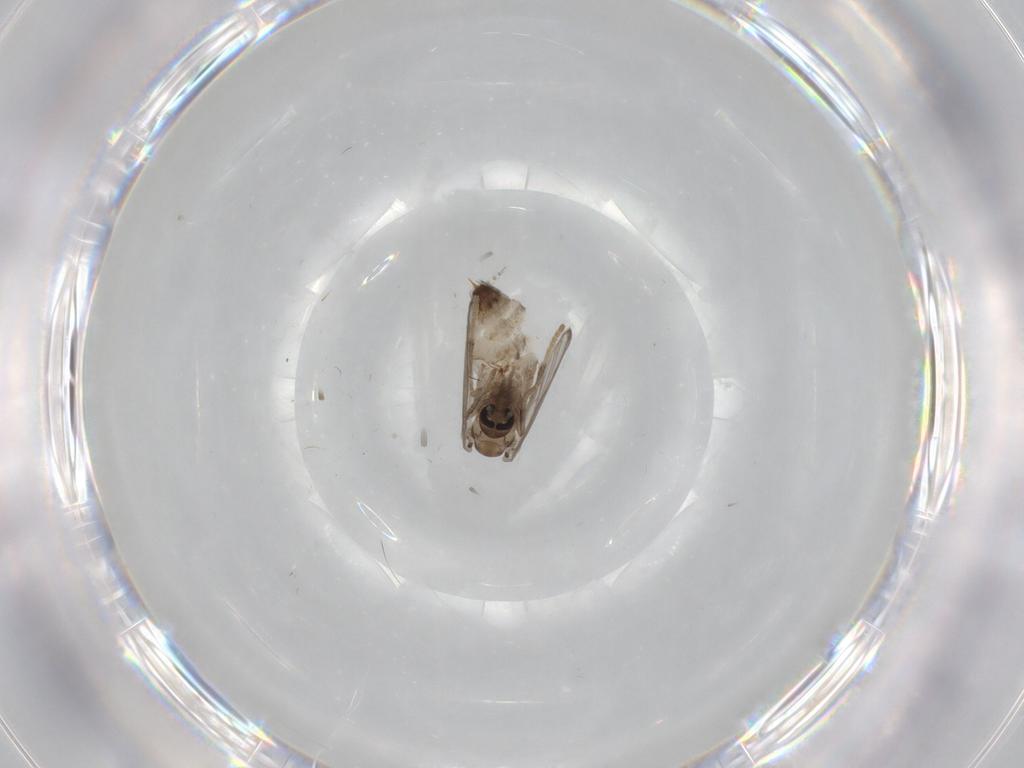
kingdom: Animalia
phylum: Arthropoda
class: Insecta
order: Diptera
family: Psychodidae
